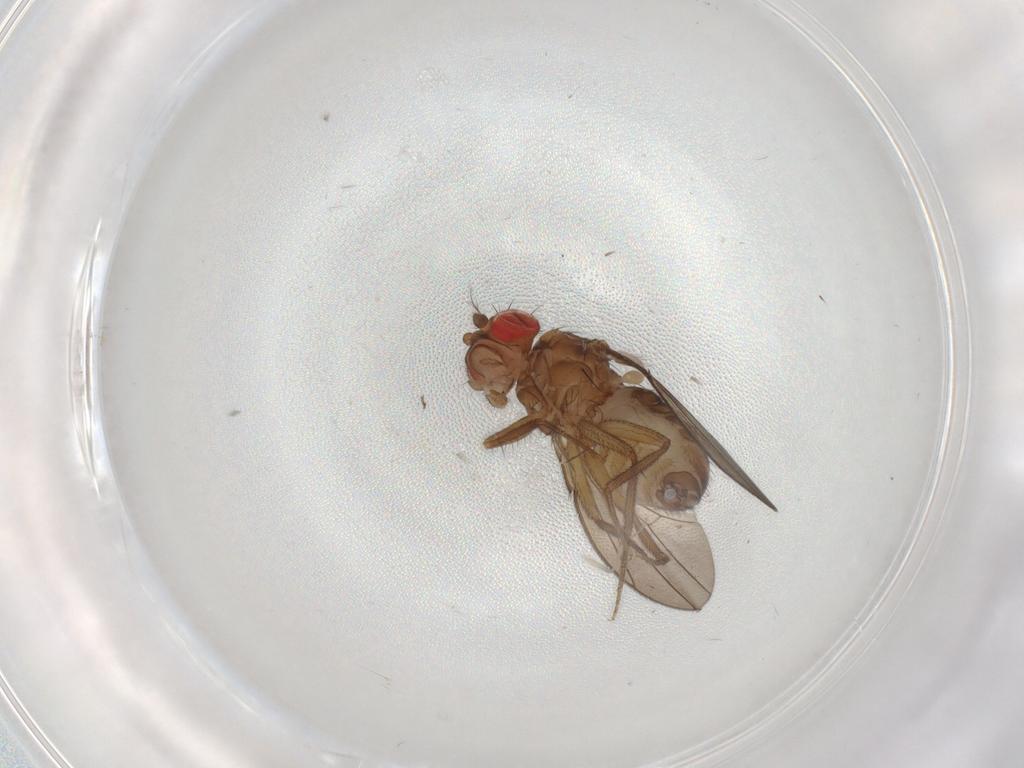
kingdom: Animalia
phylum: Arthropoda
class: Insecta
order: Diptera
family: Drosophilidae
